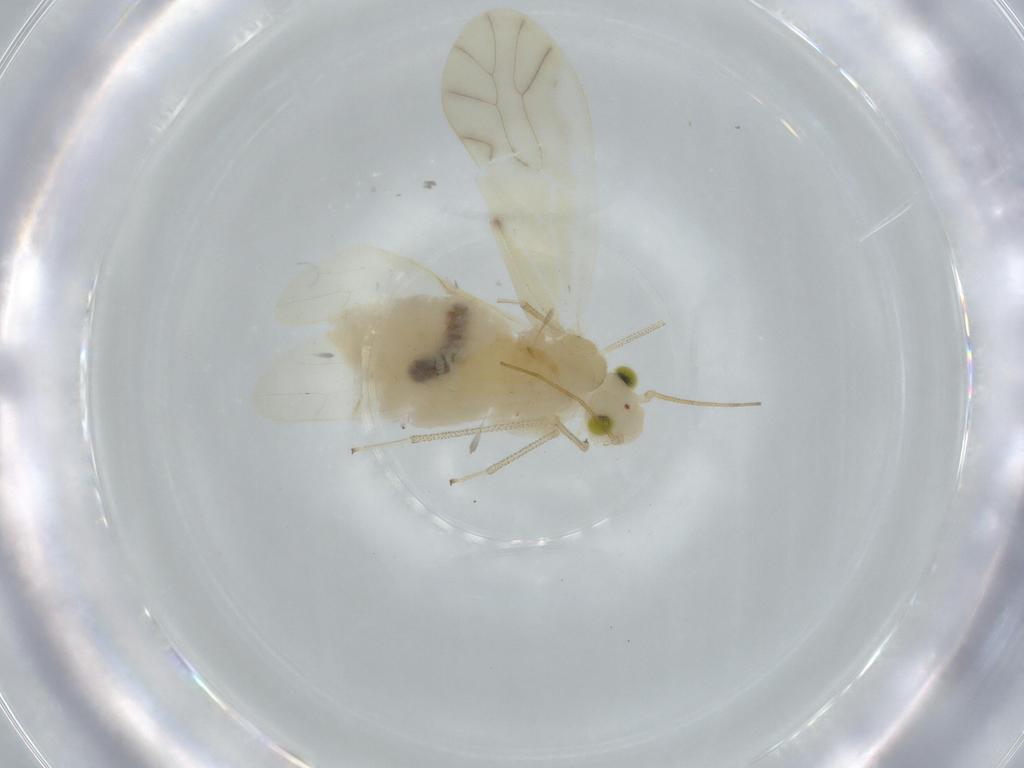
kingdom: Animalia
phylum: Arthropoda
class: Insecta
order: Psocodea
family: Caeciliusidae
